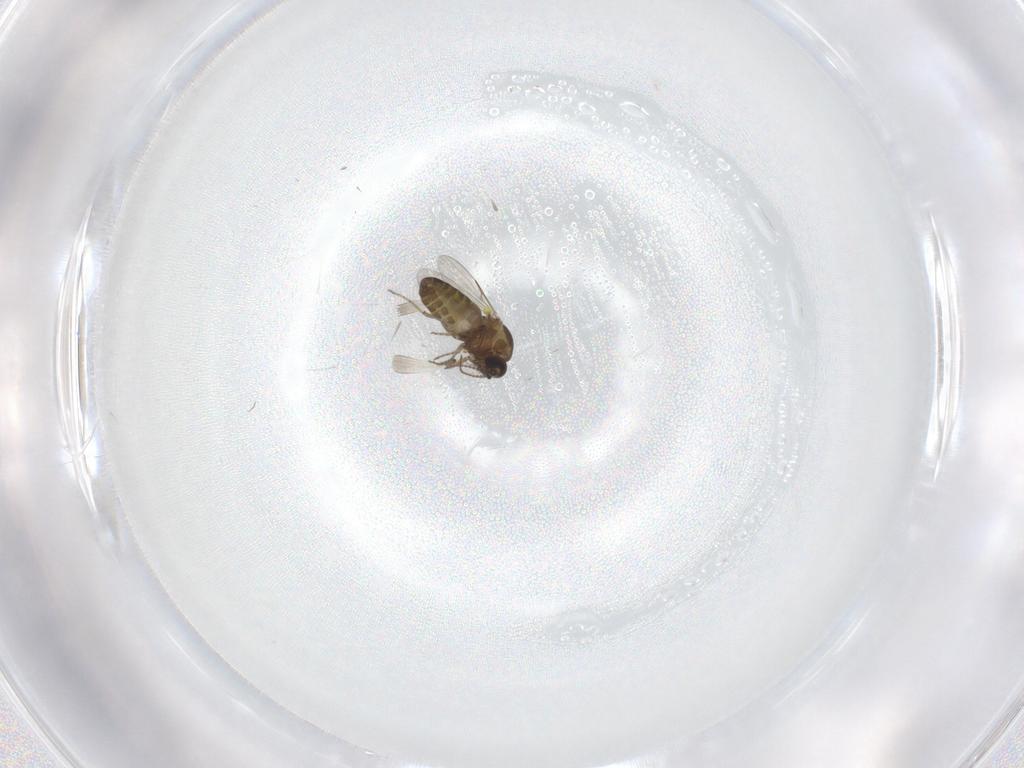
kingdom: Animalia
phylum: Arthropoda
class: Insecta
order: Diptera
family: Ceratopogonidae
